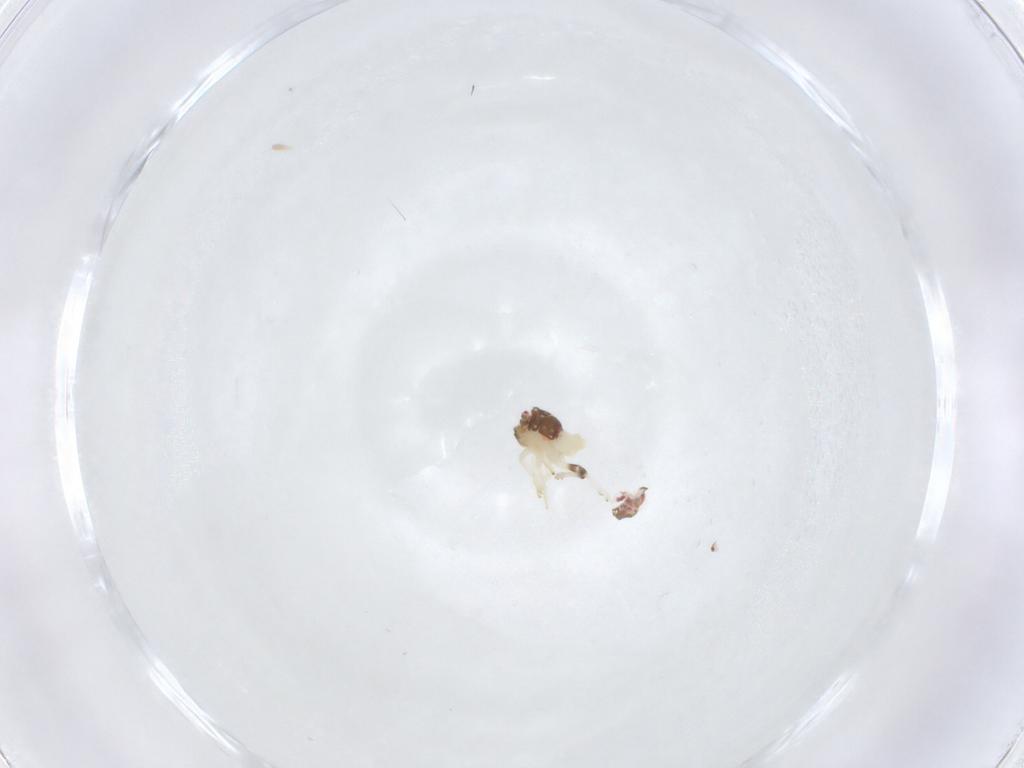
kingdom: Animalia
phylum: Arthropoda
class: Insecta
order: Hemiptera
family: Nogodinidae
